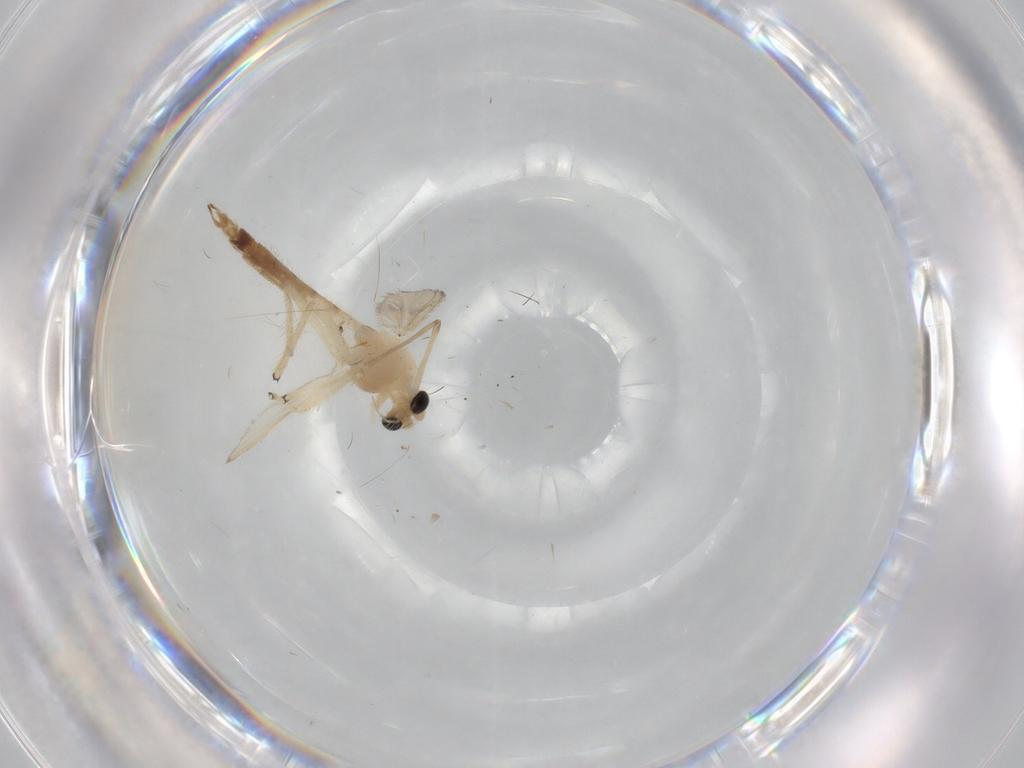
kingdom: Animalia
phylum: Arthropoda
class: Insecta
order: Diptera
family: Chironomidae
